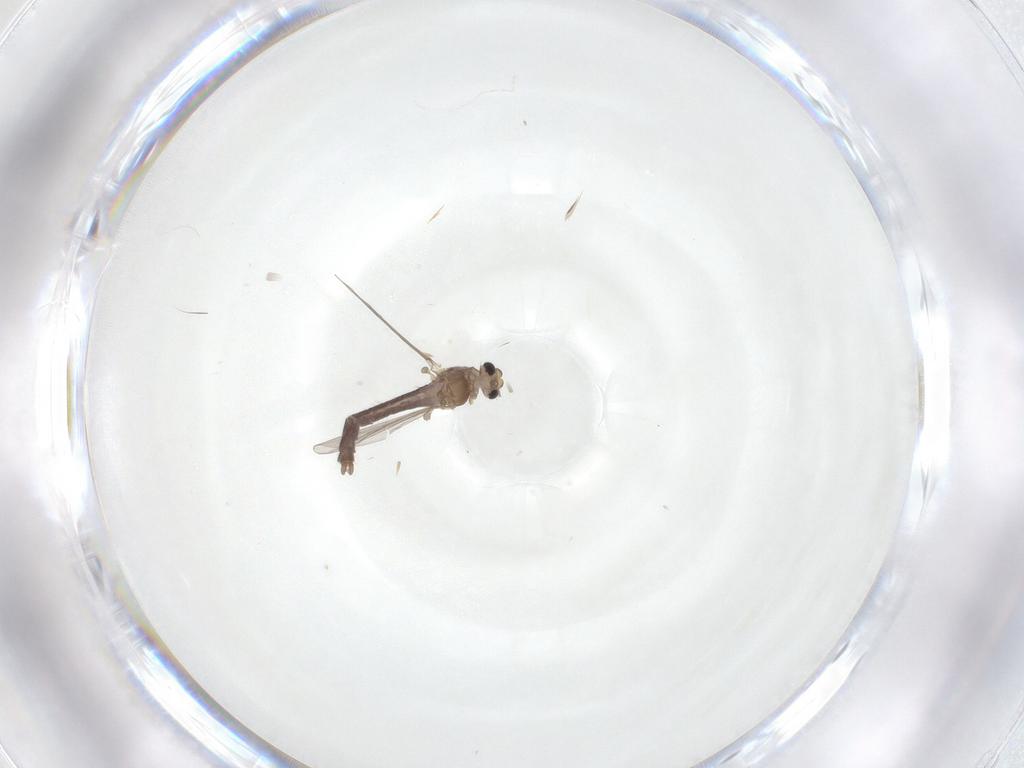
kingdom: Animalia
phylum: Arthropoda
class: Insecta
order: Diptera
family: Chironomidae
